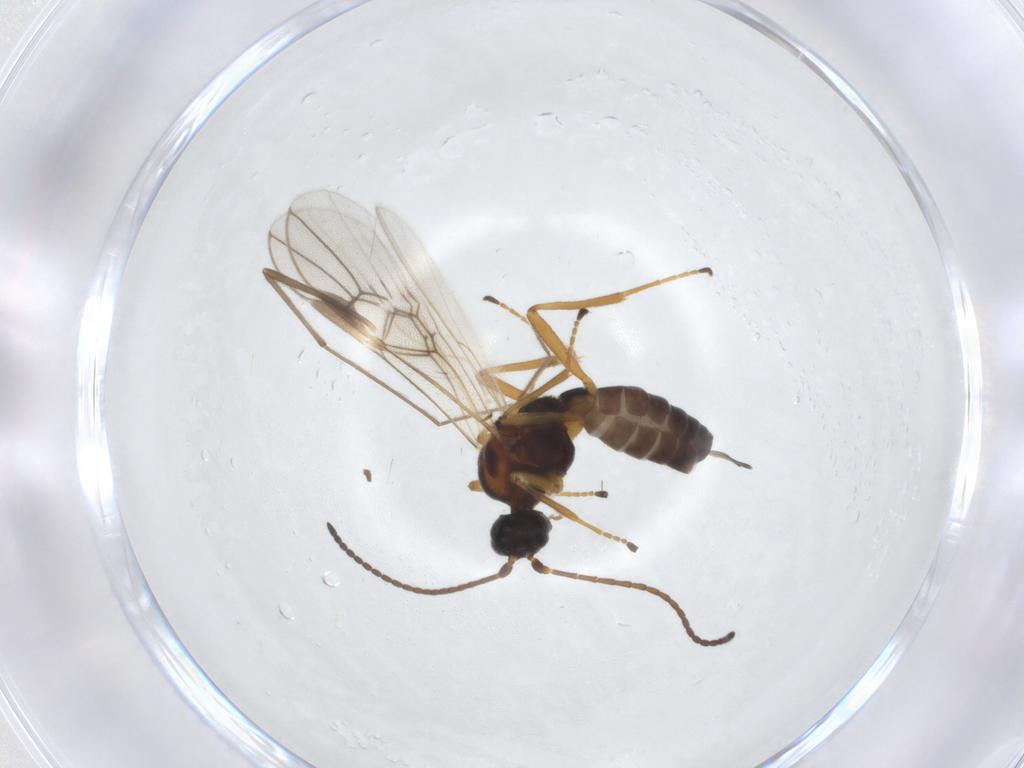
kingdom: Animalia
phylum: Arthropoda
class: Insecta
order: Hymenoptera
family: Braconidae
